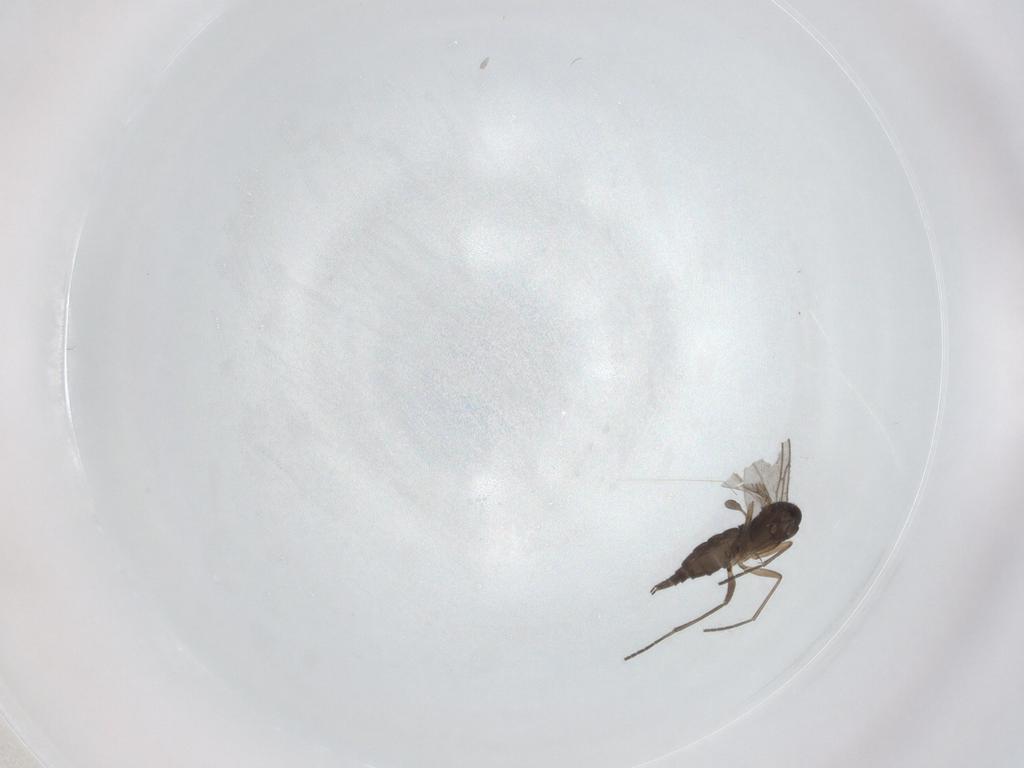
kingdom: Animalia
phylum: Arthropoda
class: Insecta
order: Diptera
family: Sciaridae
